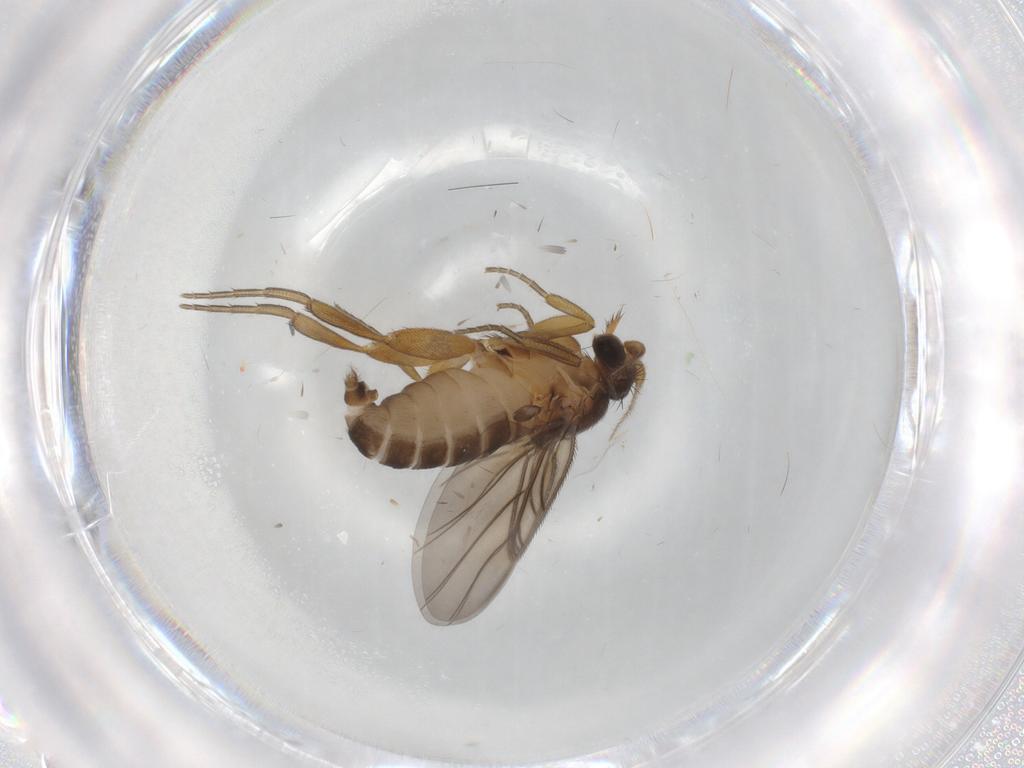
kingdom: Animalia
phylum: Arthropoda
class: Insecta
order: Diptera
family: Phoridae
